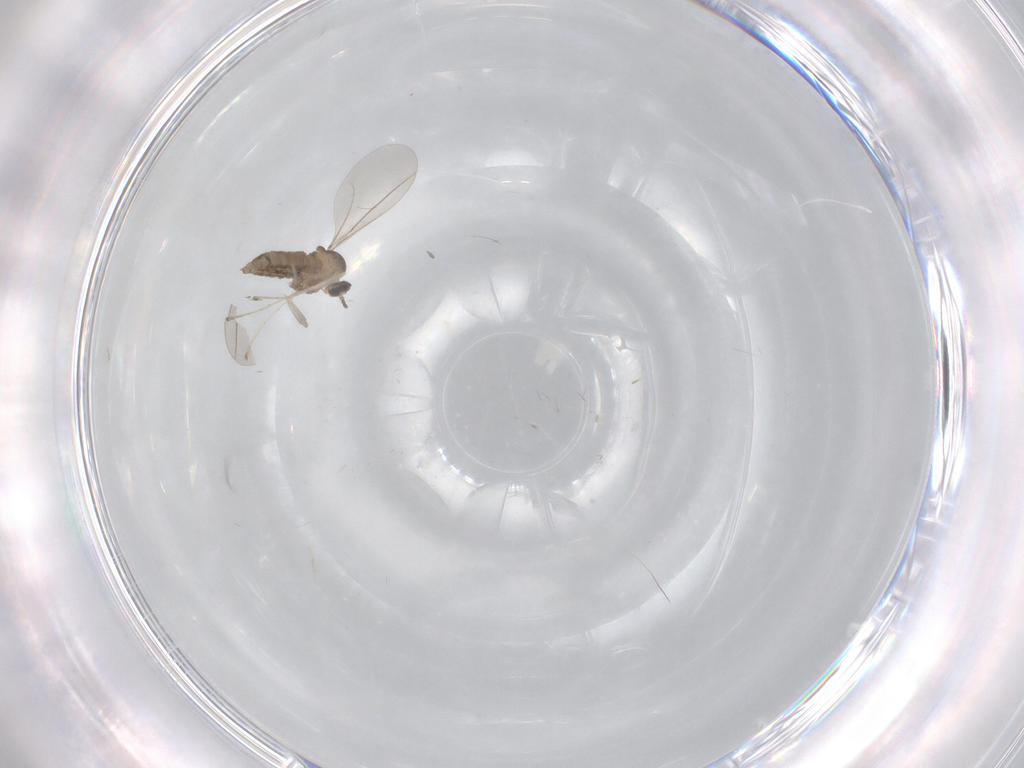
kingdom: Animalia
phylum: Arthropoda
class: Insecta
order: Diptera
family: Cecidomyiidae
